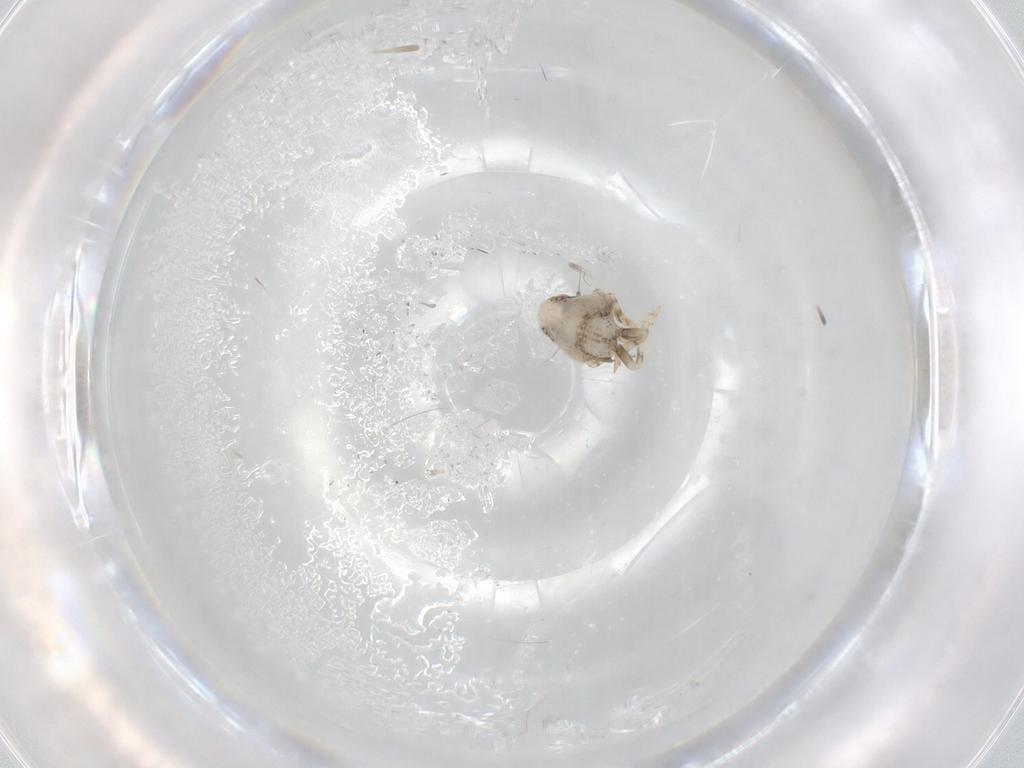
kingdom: Animalia
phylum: Arthropoda
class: Insecta
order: Hemiptera
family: Acanaloniidae
